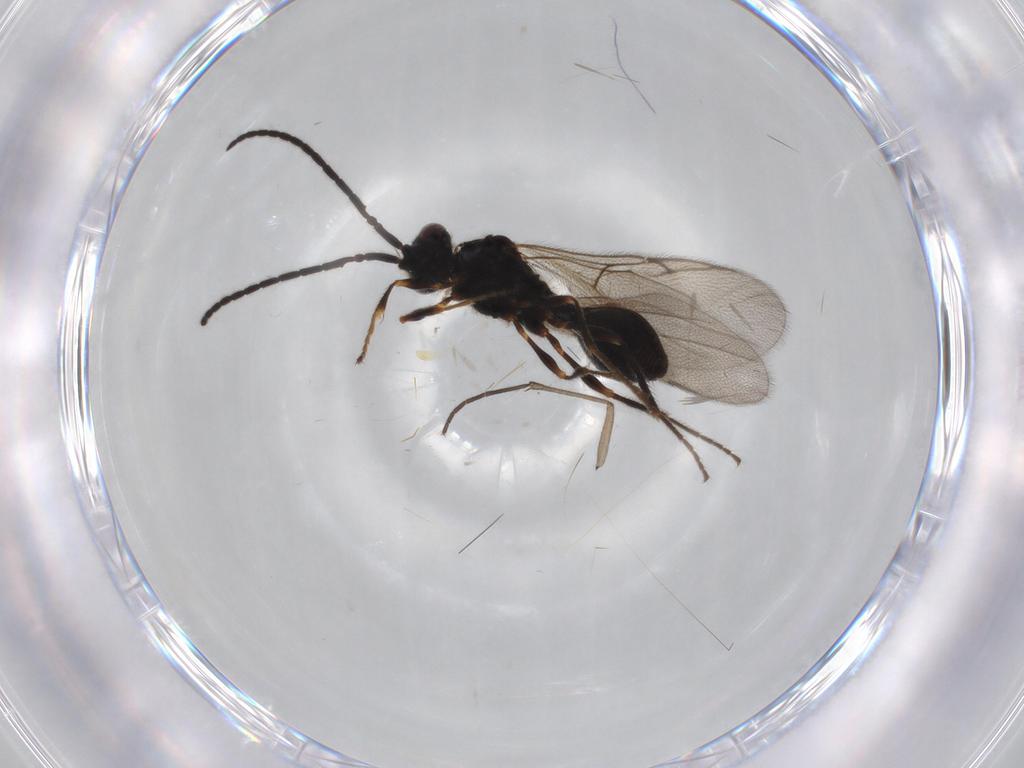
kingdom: Animalia
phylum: Arthropoda
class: Insecta
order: Hymenoptera
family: Diapriidae
